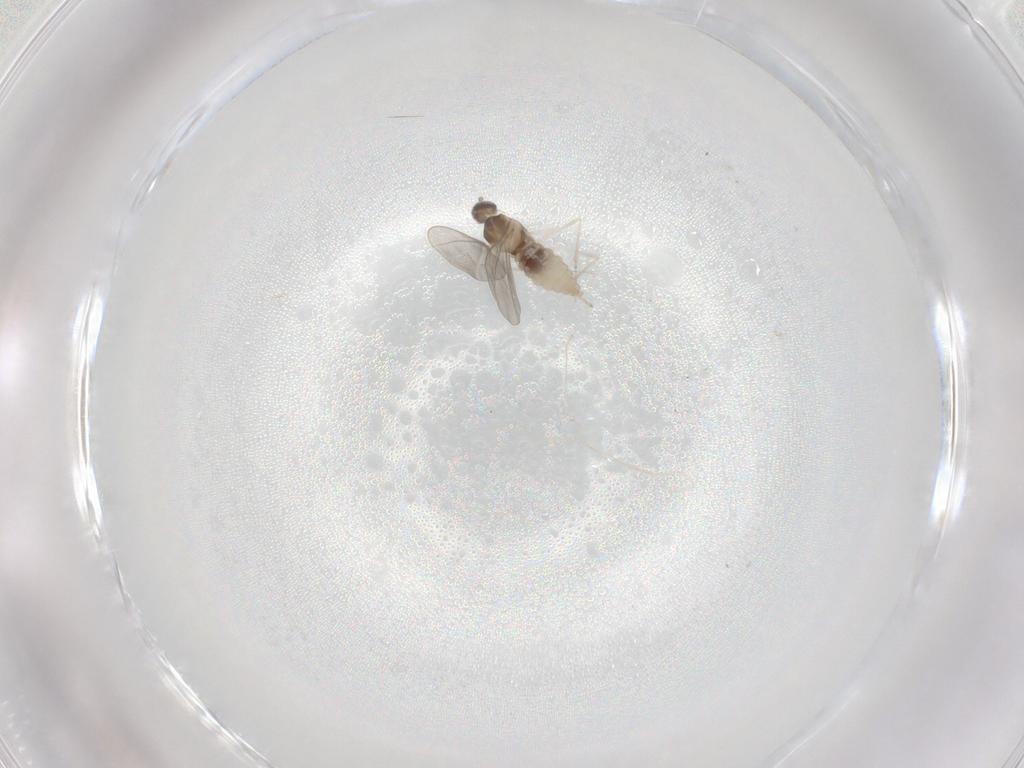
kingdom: Animalia
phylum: Arthropoda
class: Insecta
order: Diptera
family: Cecidomyiidae
